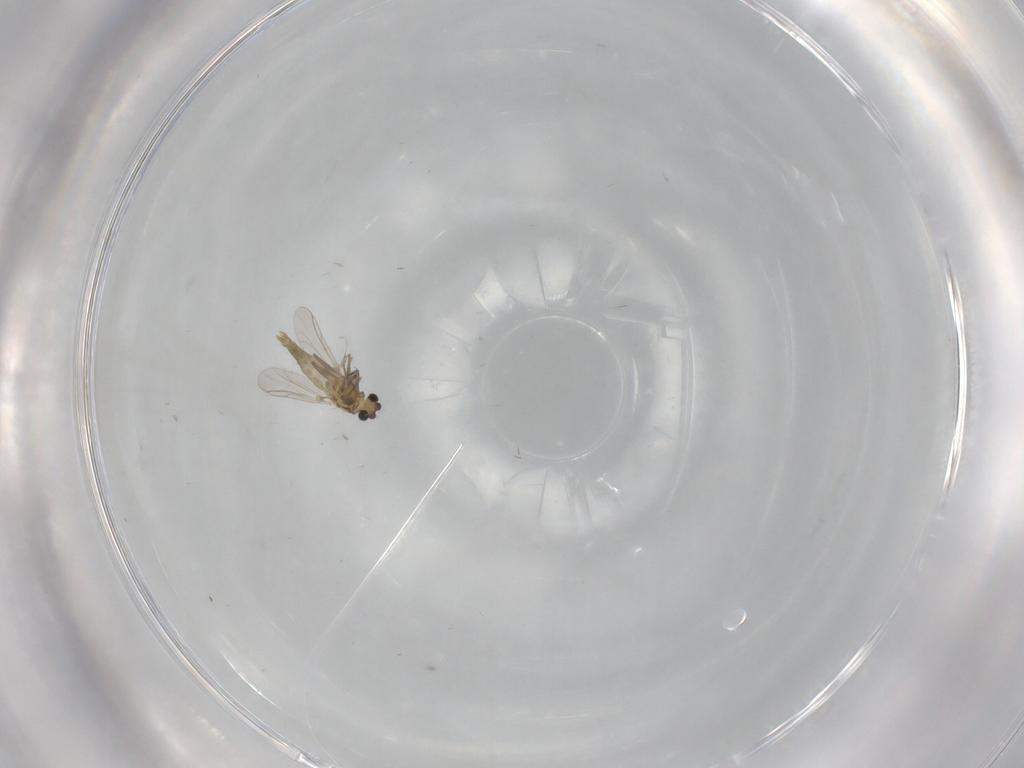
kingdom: Animalia
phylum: Arthropoda
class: Insecta
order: Diptera
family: Chironomidae
